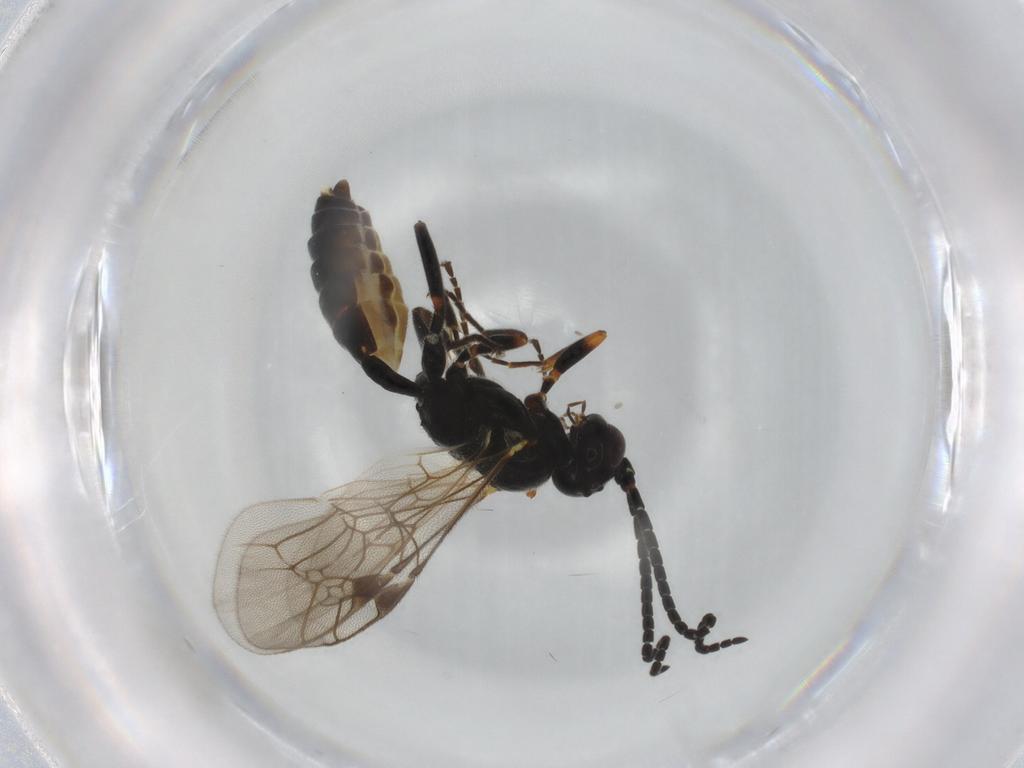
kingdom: Animalia
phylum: Arthropoda
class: Insecta
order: Hymenoptera
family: Ichneumonidae
